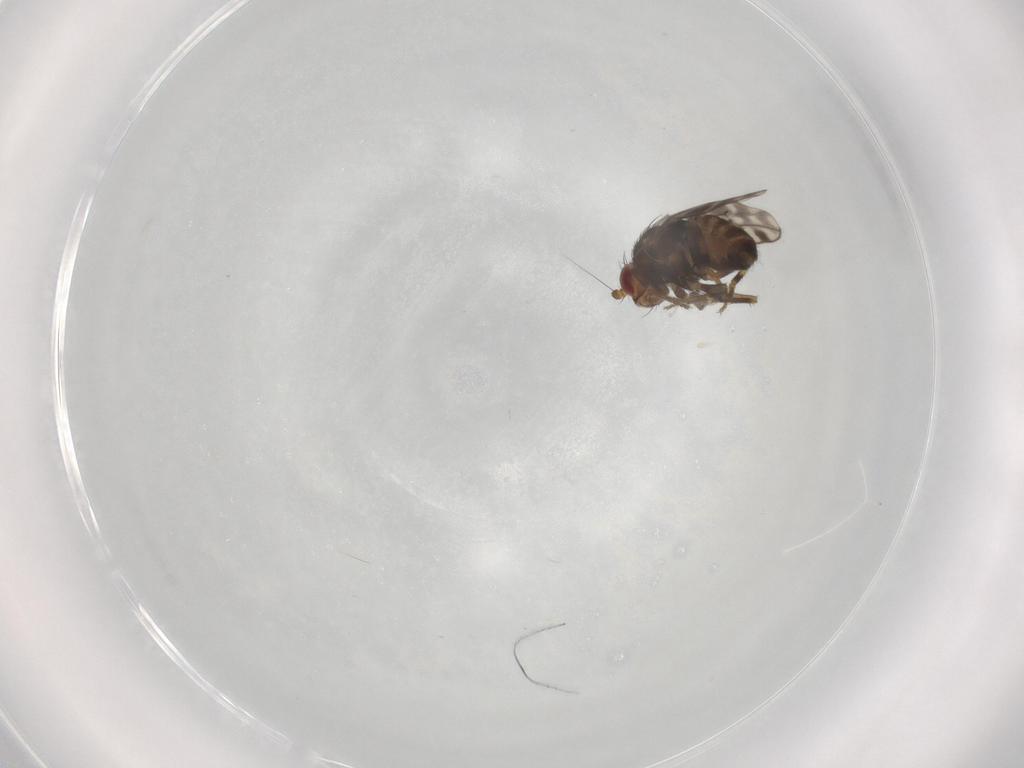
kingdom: Animalia
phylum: Arthropoda
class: Insecta
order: Diptera
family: Sphaeroceridae
